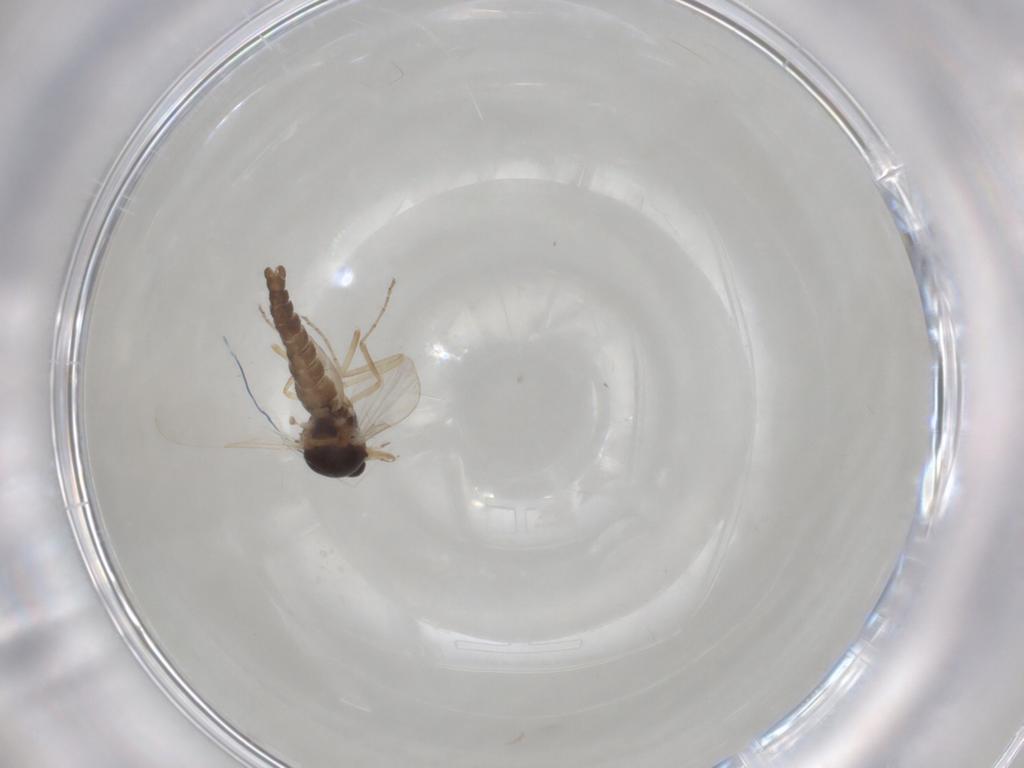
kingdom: Animalia
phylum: Arthropoda
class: Insecta
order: Diptera
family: Ceratopogonidae
